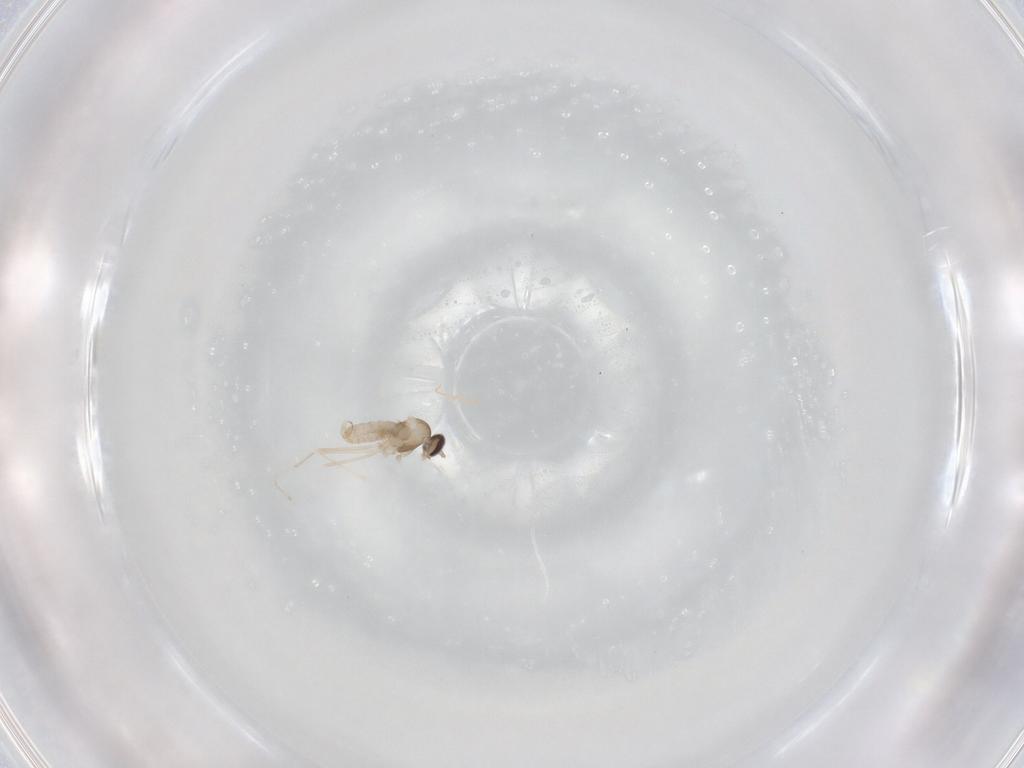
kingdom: Animalia
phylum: Arthropoda
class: Insecta
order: Diptera
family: Cecidomyiidae
